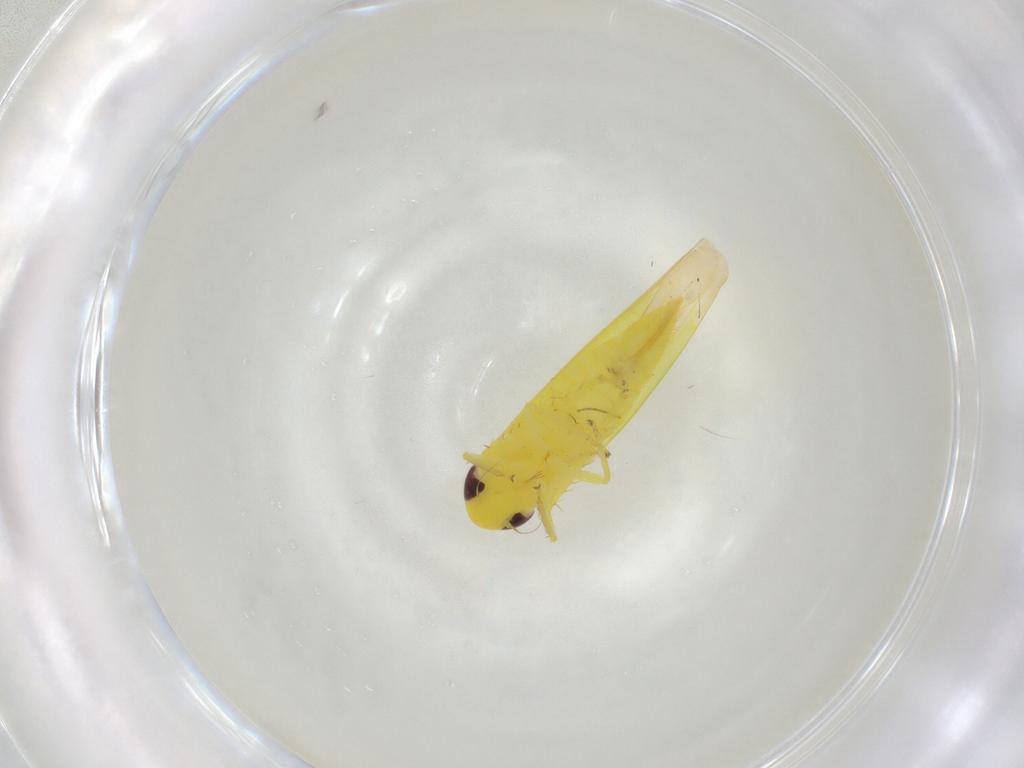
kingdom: Animalia
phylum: Arthropoda
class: Insecta
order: Hemiptera
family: Cicadellidae
